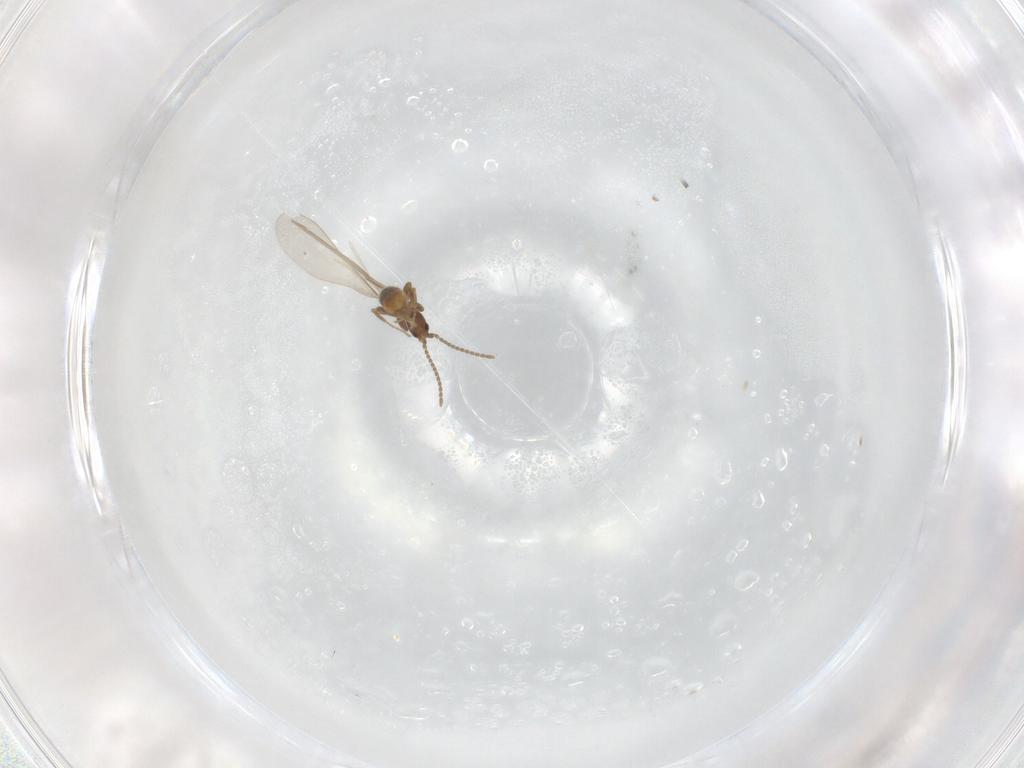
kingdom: Animalia
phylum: Arthropoda
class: Insecta
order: Hymenoptera
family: Formicidae
